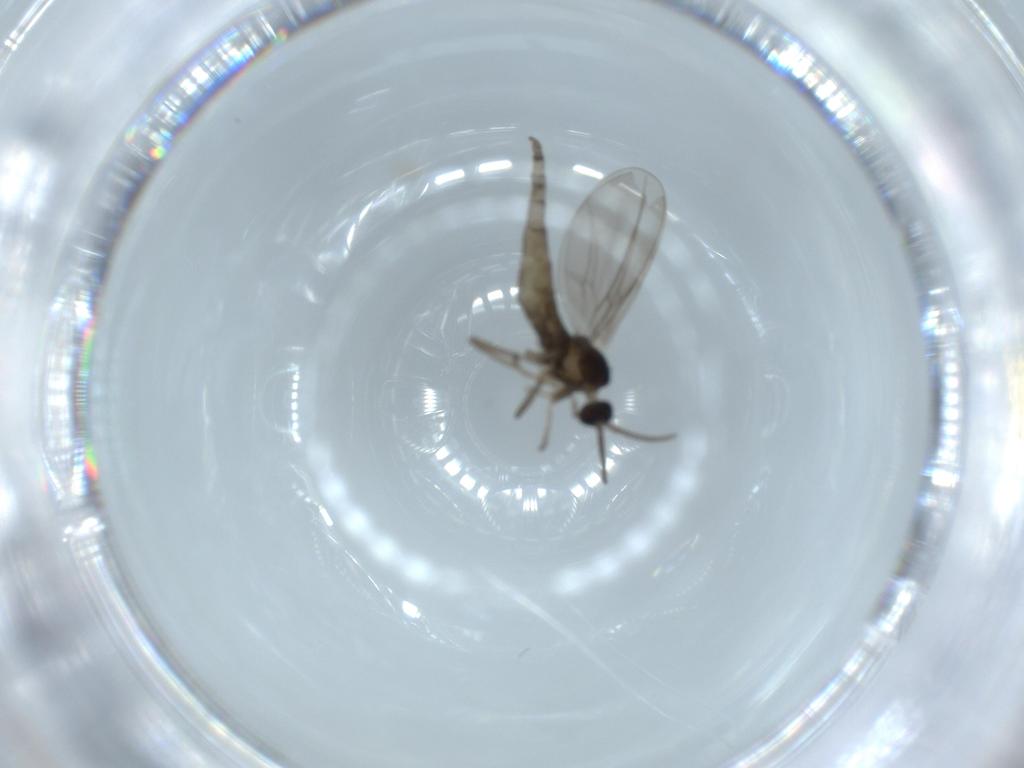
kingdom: Animalia
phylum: Arthropoda
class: Insecta
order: Diptera
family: Cecidomyiidae
